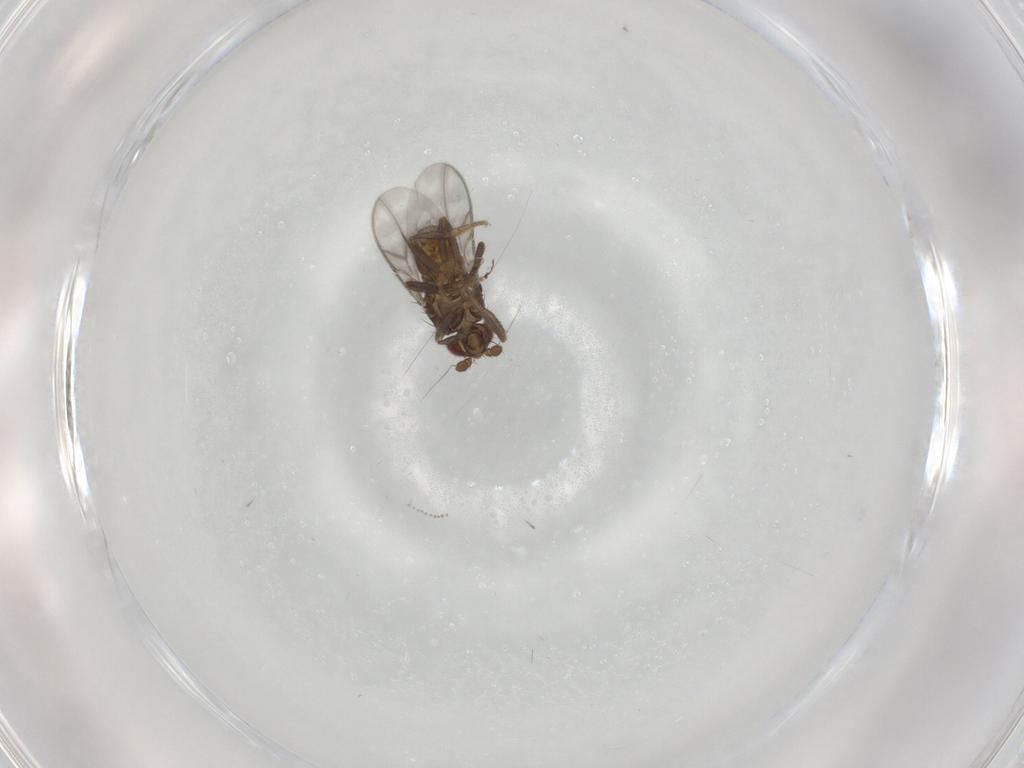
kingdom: Animalia
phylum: Arthropoda
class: Insecta
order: Diptera
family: Sphaeroceridae
